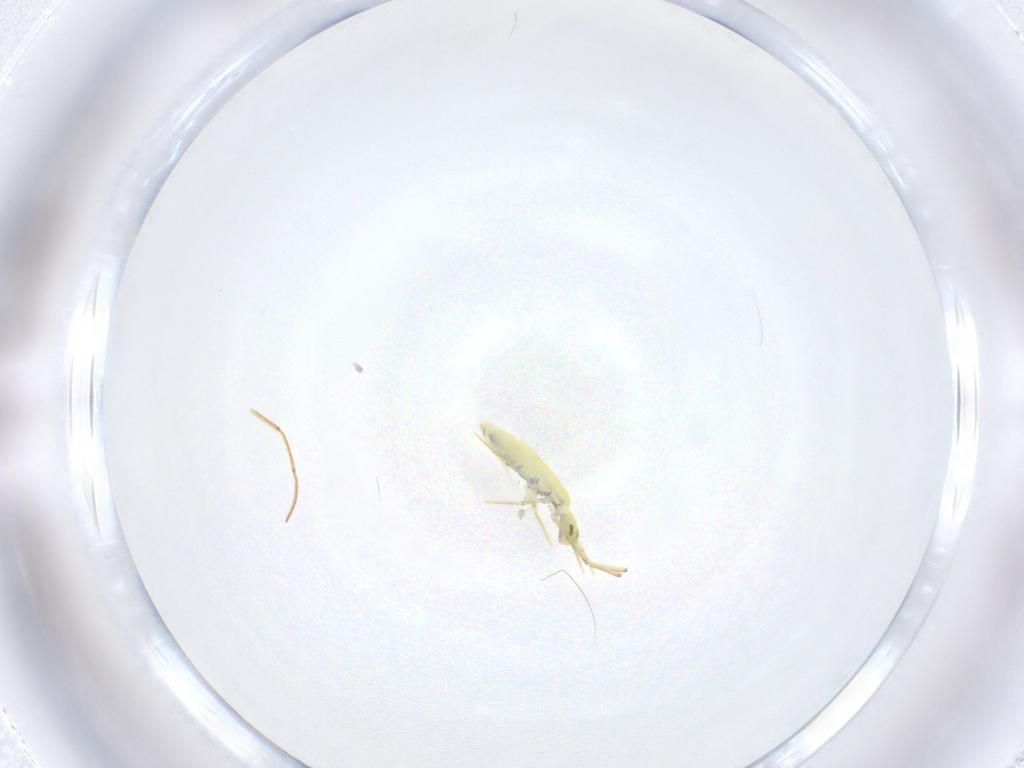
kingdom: Animalia
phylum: Arthropoda
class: Collembola
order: Entomobryomorpha
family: Entomobryidae
